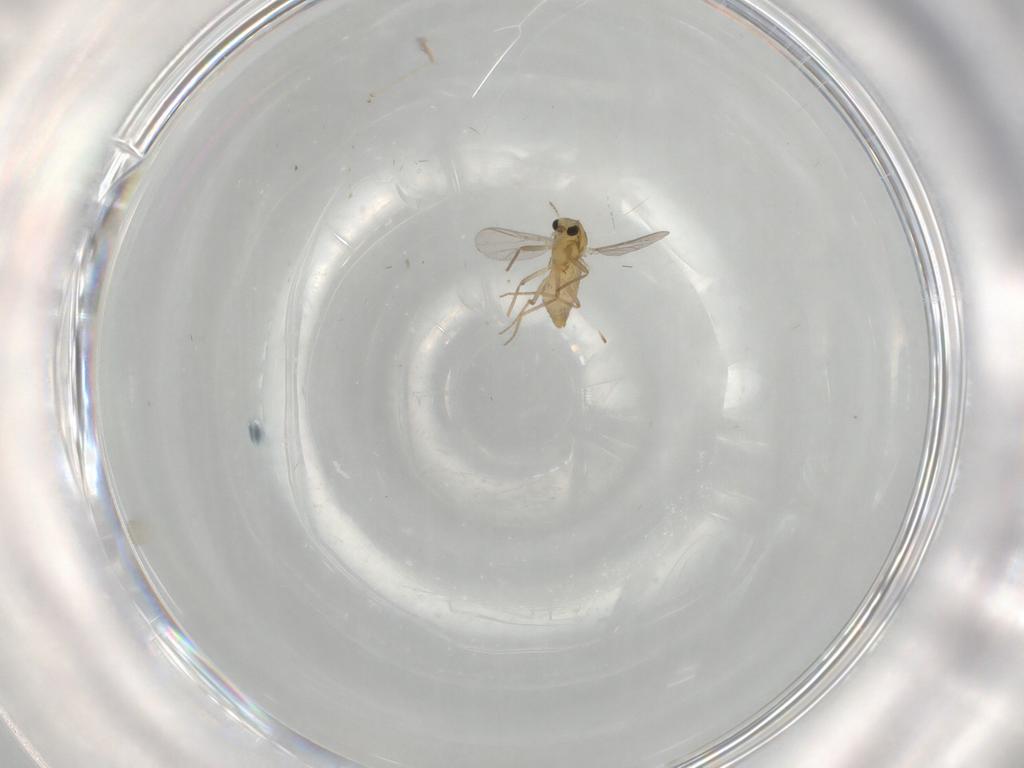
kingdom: Animalia
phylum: Arthropoda
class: Insecta
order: Diptera
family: Chironomidae
